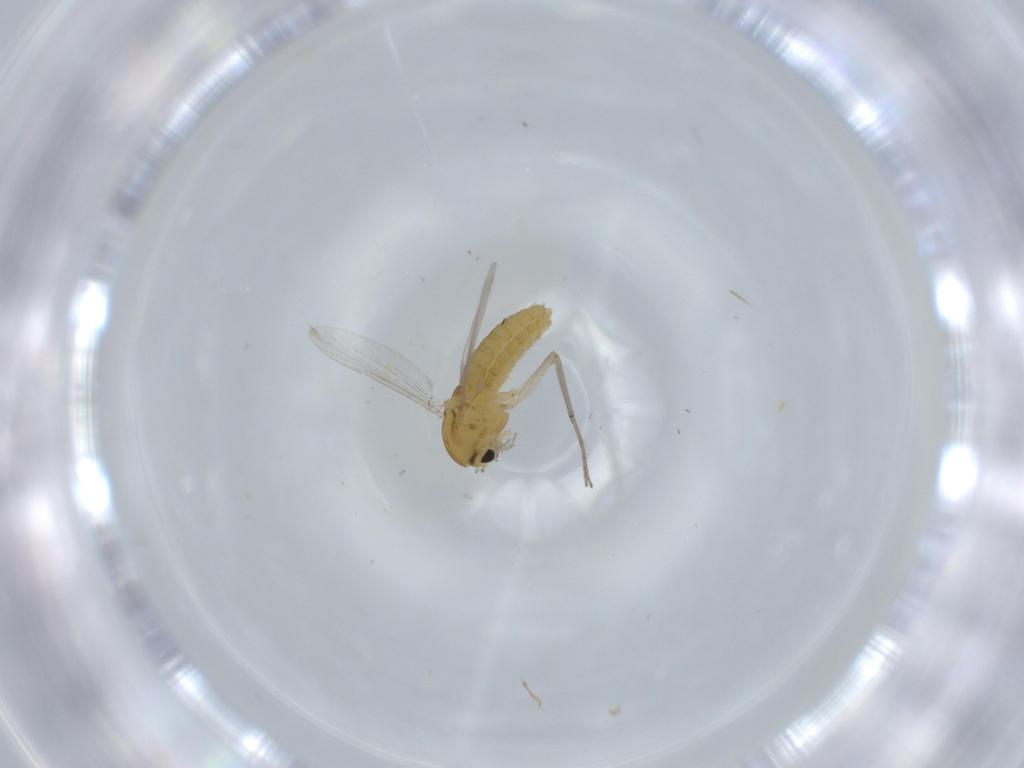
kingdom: Animalia
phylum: Arthropoda
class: Insecta
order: Diptera
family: Chironomidae
